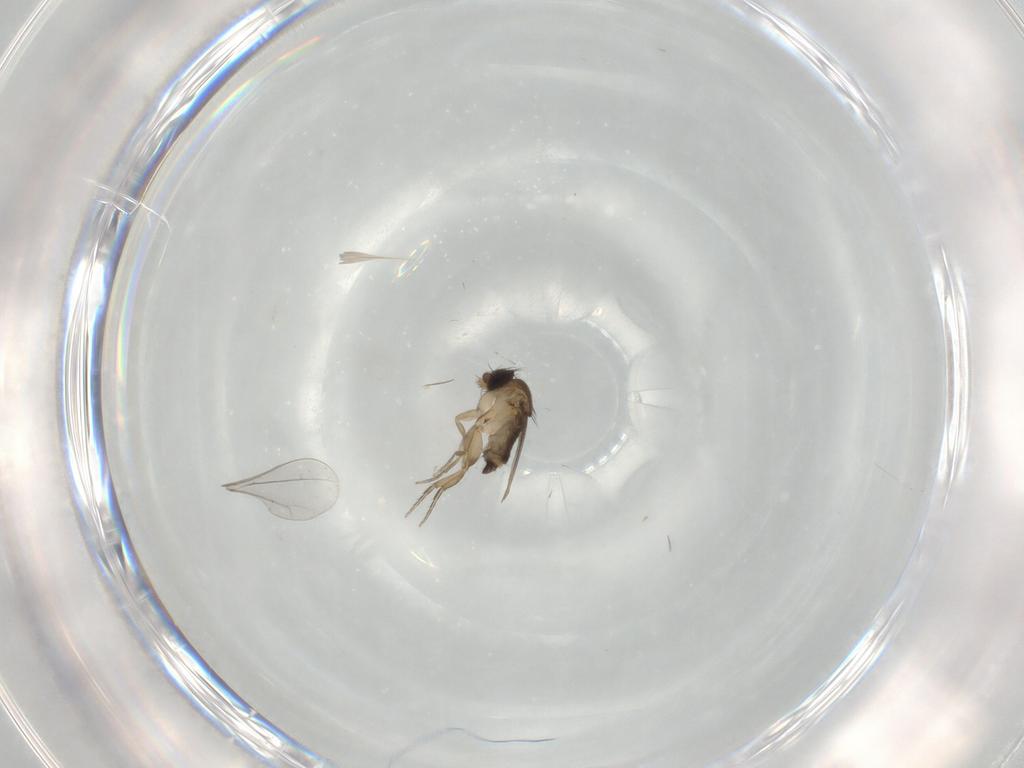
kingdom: Animalia
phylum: Arthropoda
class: Insecta
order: Diptera
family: Phoridae
